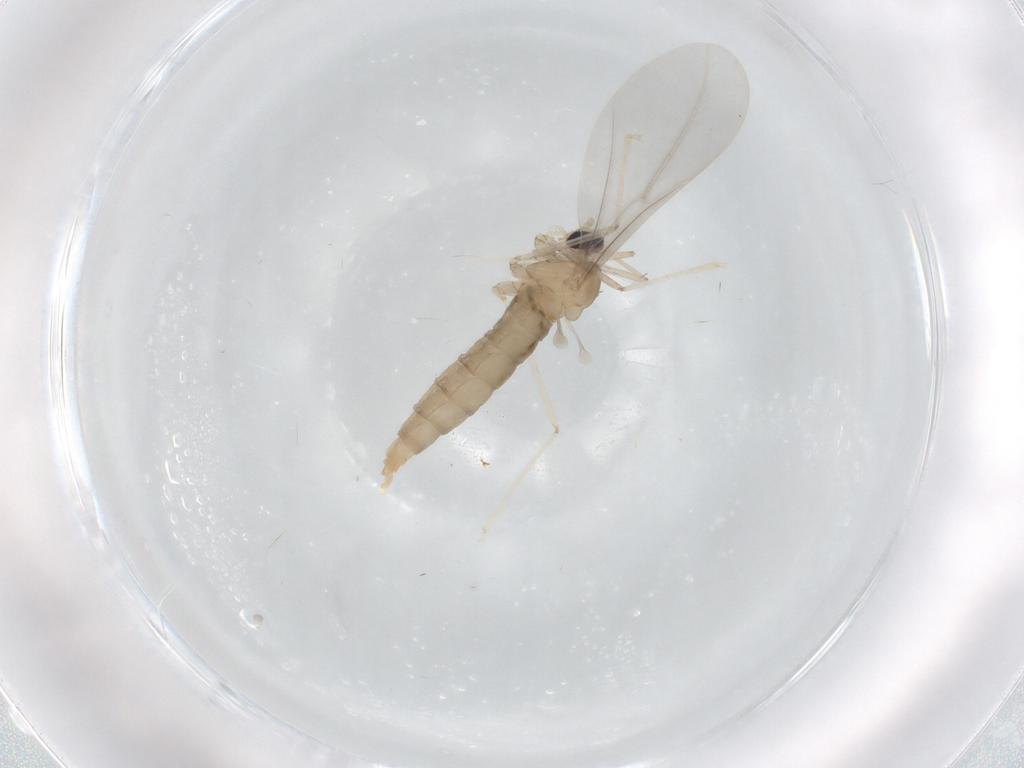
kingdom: Animalia
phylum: Arthropoda
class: Insecta
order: Diptera
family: Cecidomyiidae
